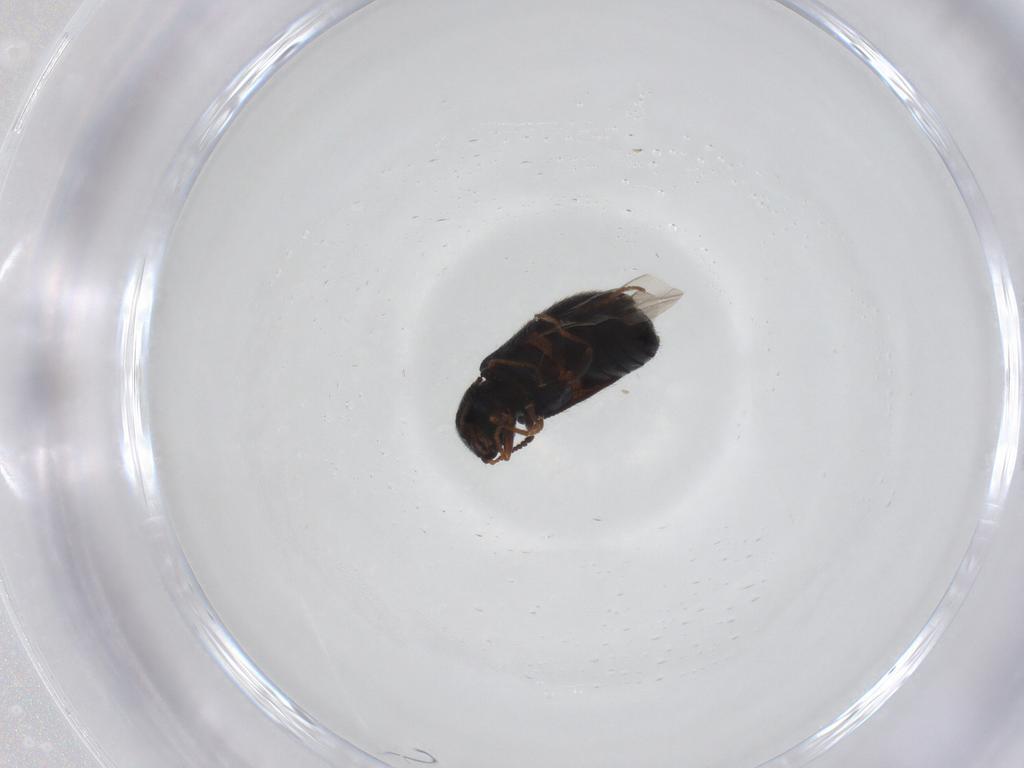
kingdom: Animalia
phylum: Arthropoda
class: Insecta
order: Coleoptera
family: Melyridae
